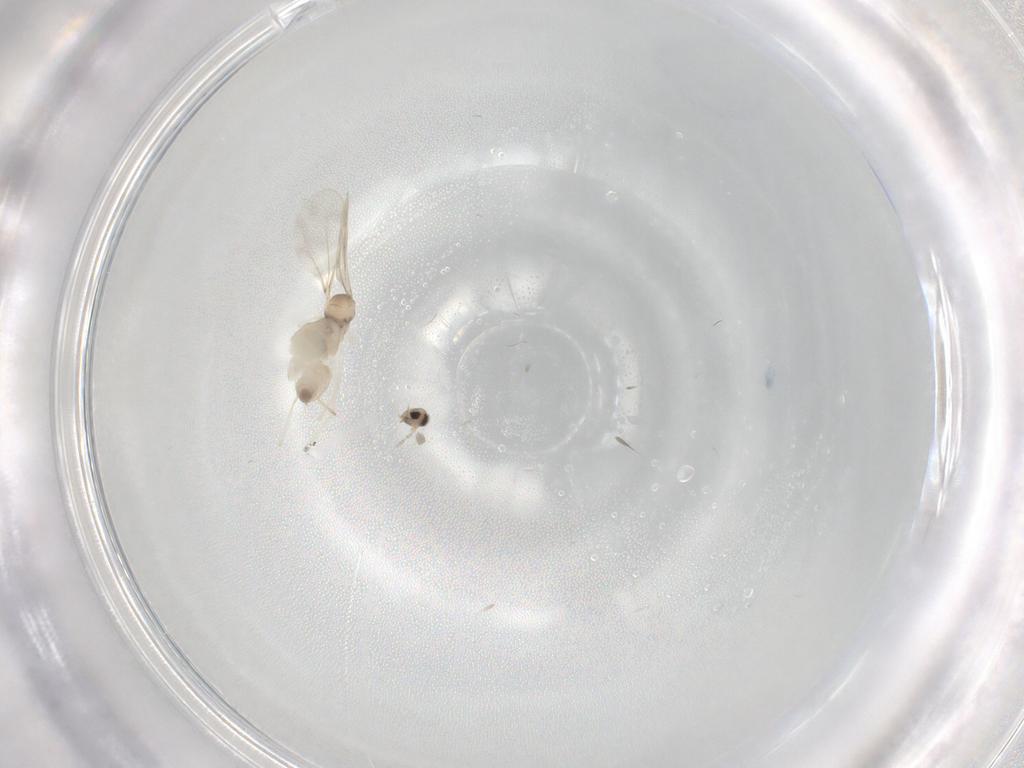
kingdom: Animalia
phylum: Arthropoda
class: Insecta
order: Diptera
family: Cecidomyiidae
